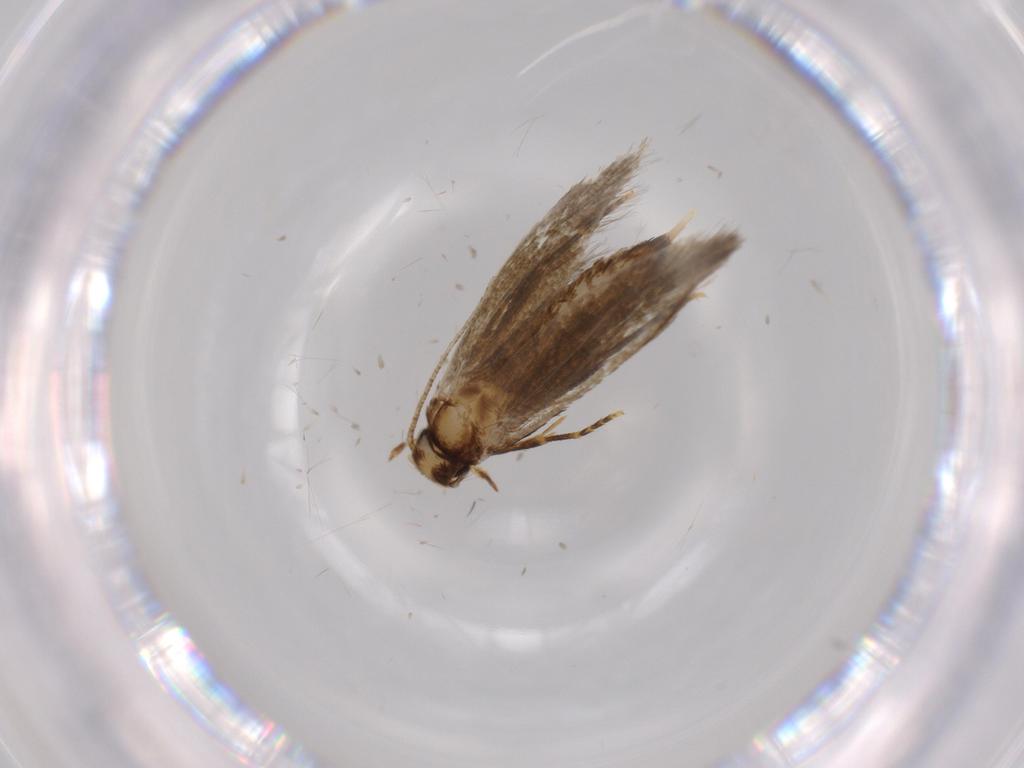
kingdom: Animalia
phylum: Arthropoda
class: Insecta
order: Lepidoptera
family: Tineidae
